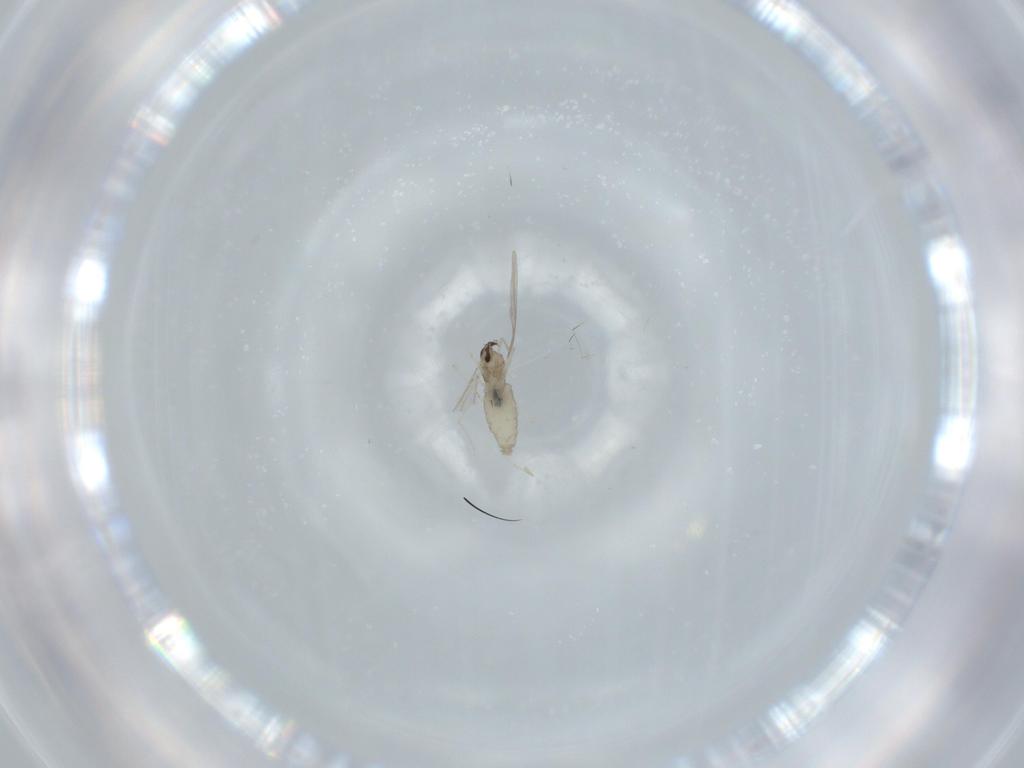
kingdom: Animalia
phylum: Arthropoda
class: Insecta
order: Diptera
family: Cecidomyiidae
